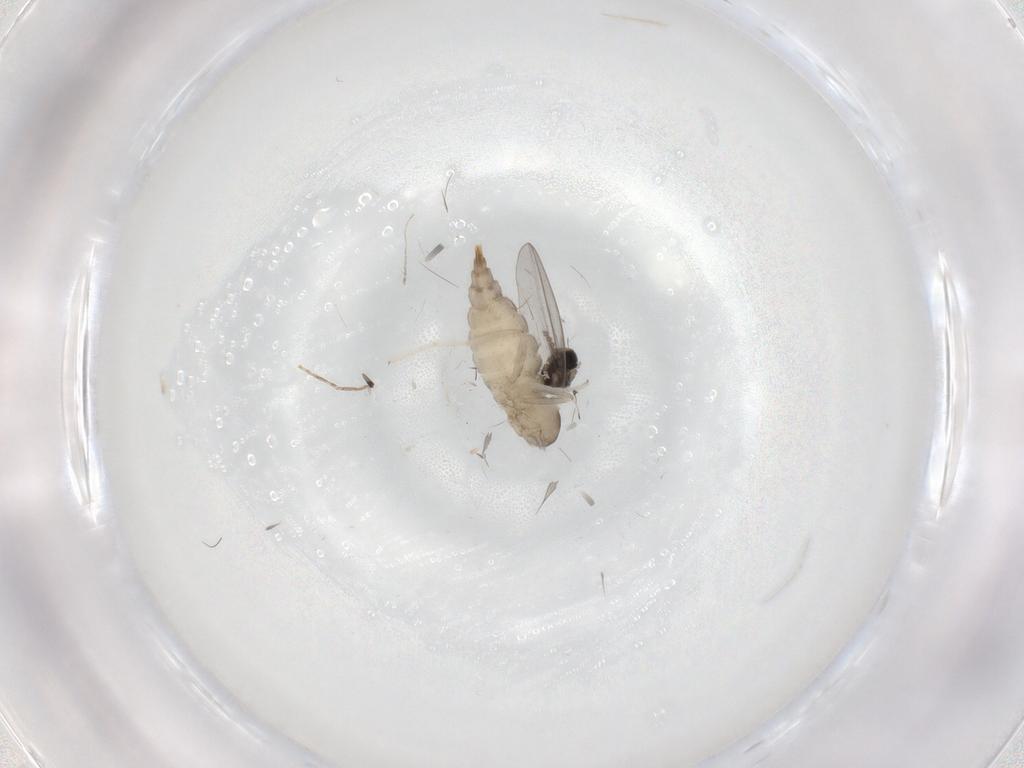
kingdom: Animalia
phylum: Arthropoda
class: Insecta
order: Diptera
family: Cecidomyiidae
